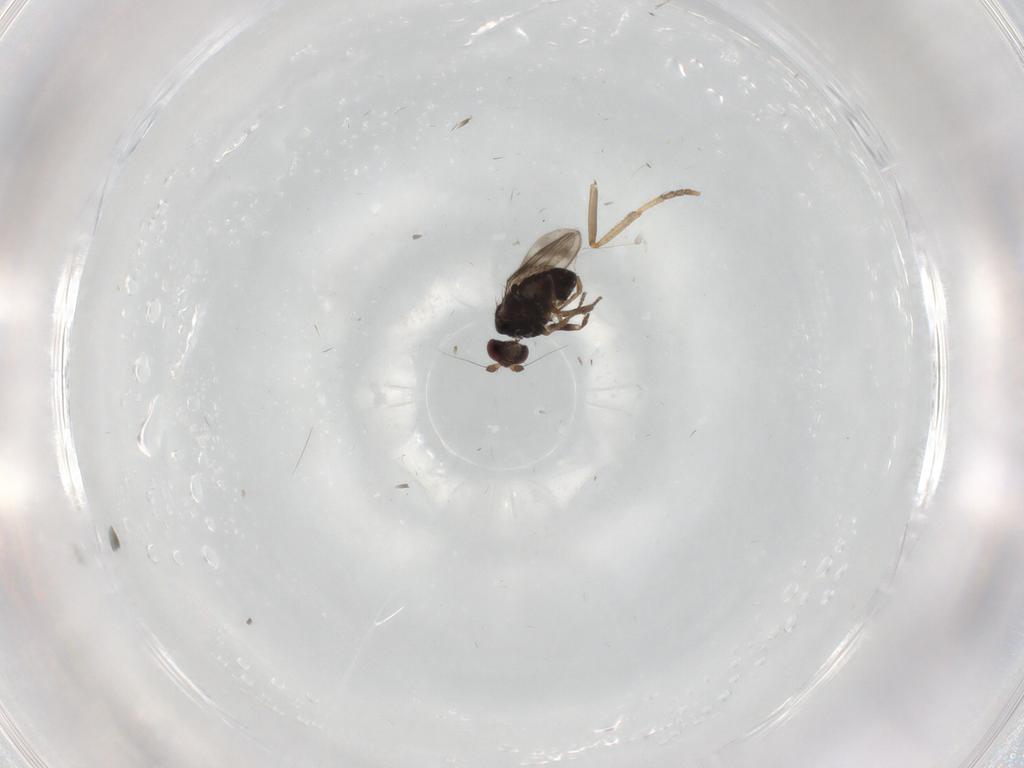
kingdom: Animalia
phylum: Arthropoda
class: Insecta
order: Diptera
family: Sphaeroceridae
